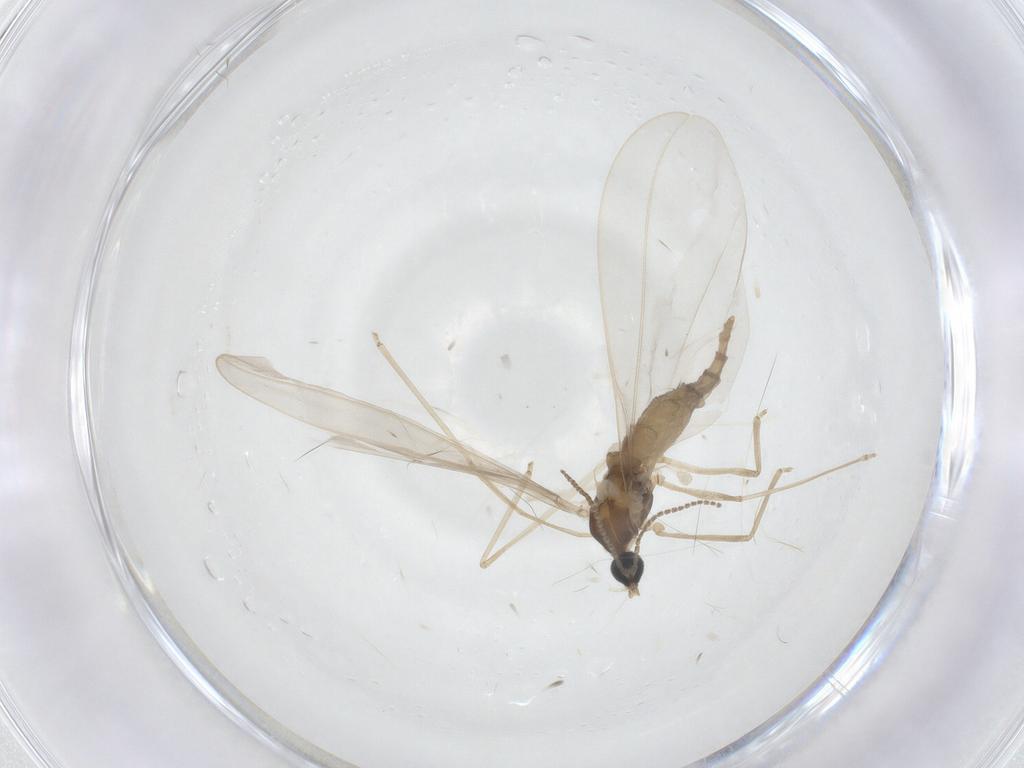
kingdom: Animalia
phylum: Arthropoda
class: Insecta
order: Diptera
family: Cecidomyiidae
